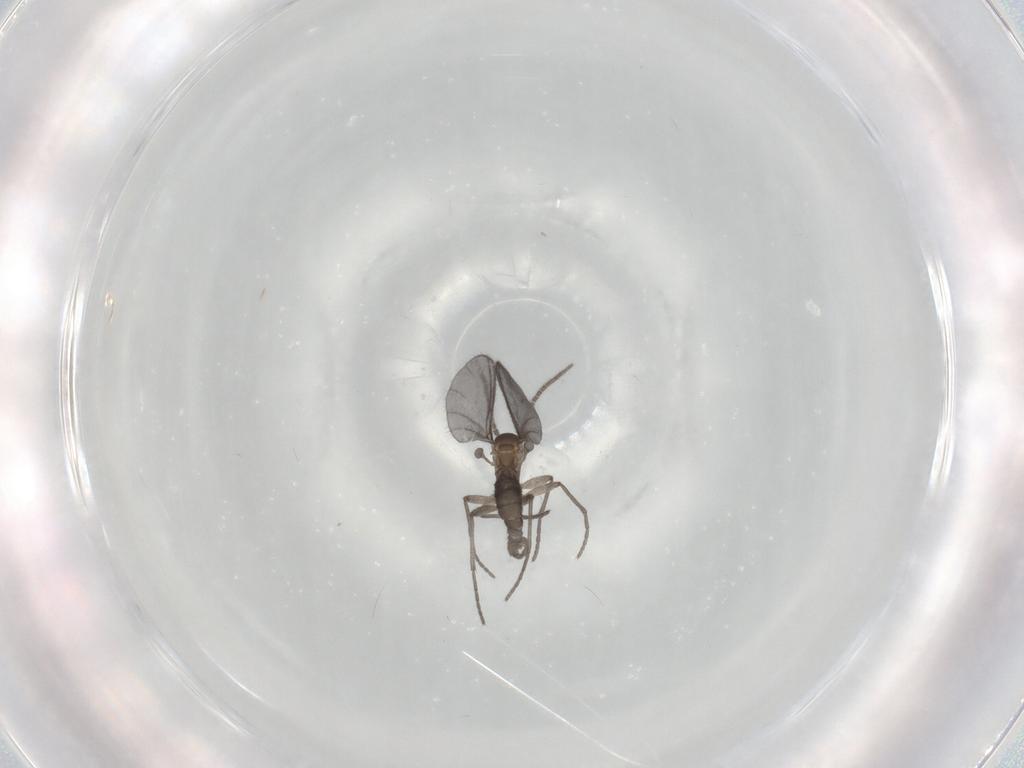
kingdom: Animalia
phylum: Arthropoda
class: Insecta
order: Diptera
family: Sciaridae
